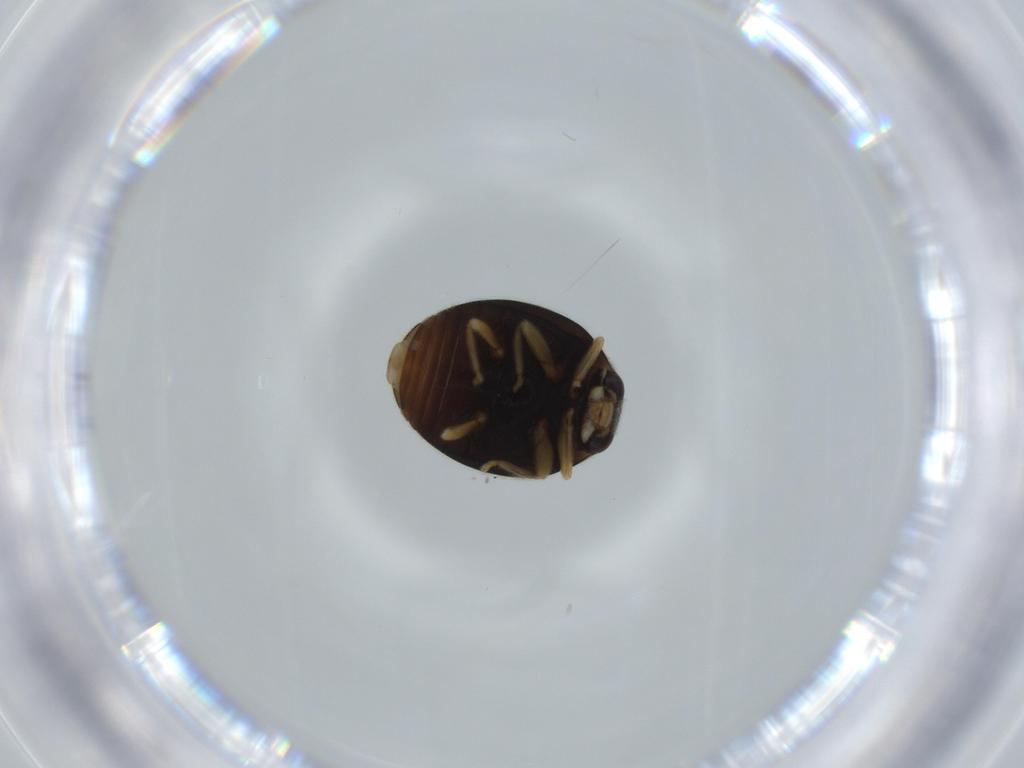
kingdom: Animalia
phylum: Arthropoda
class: Insecta
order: Coleoptera
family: Coccinellidae
